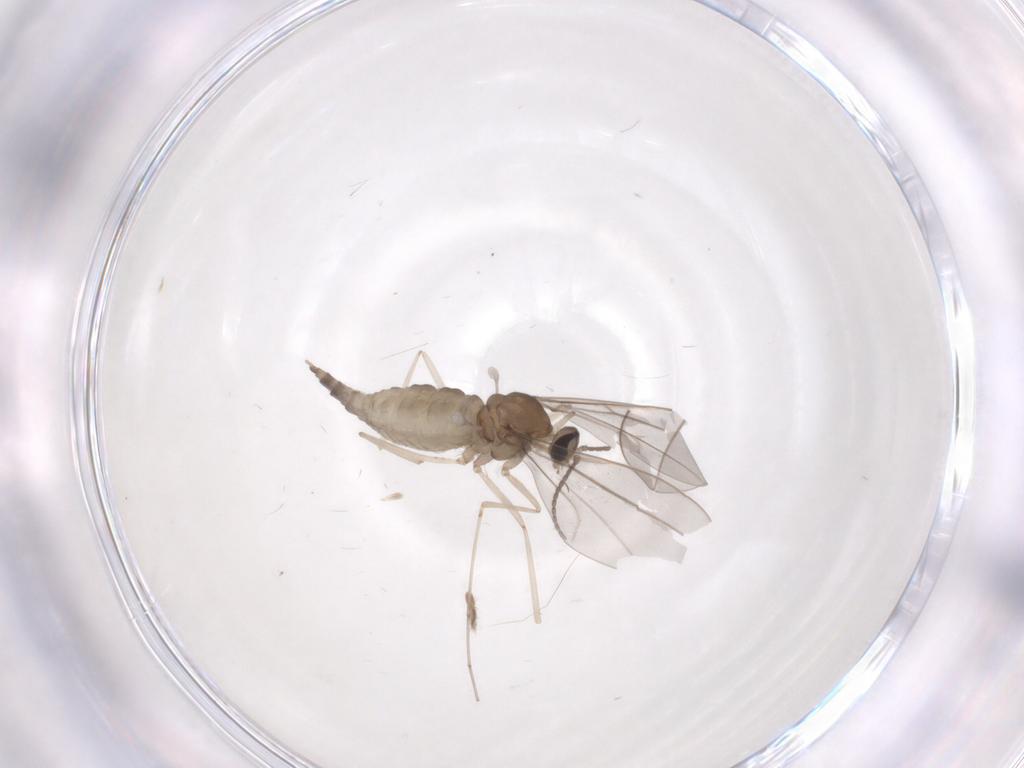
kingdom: Animalia
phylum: Arthropoda
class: Insecta
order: Diptera
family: Cecidomyiidae
